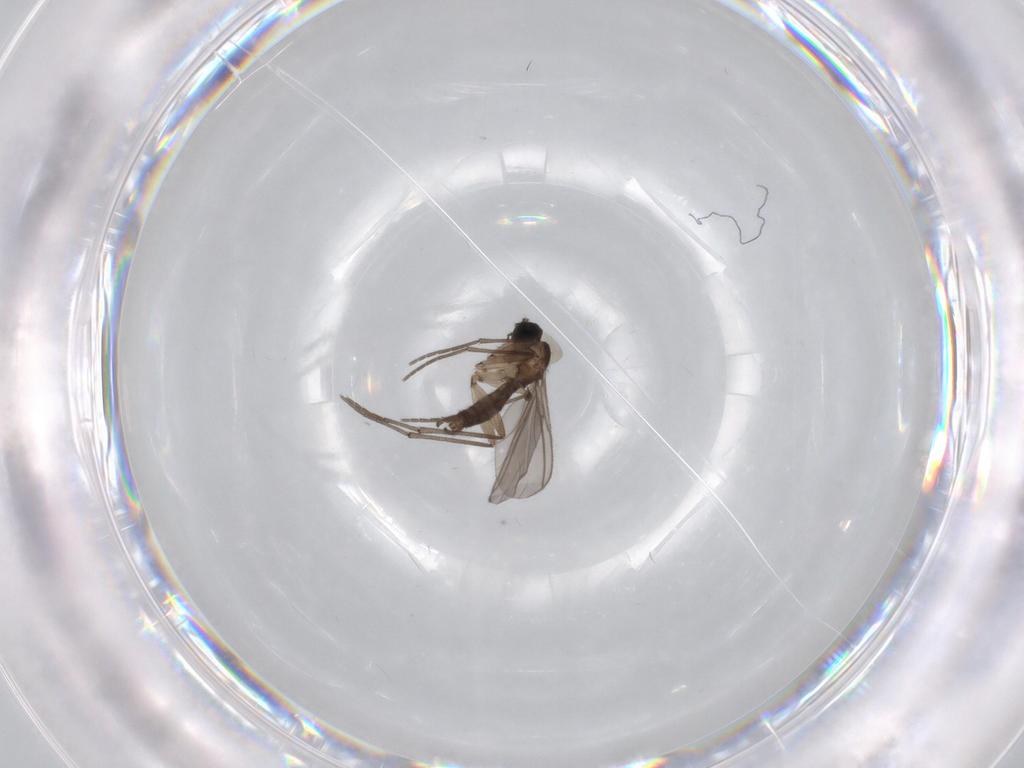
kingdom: Animalia
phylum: Arthropoda
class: Insecta
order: Diptera
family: Sciaridae
